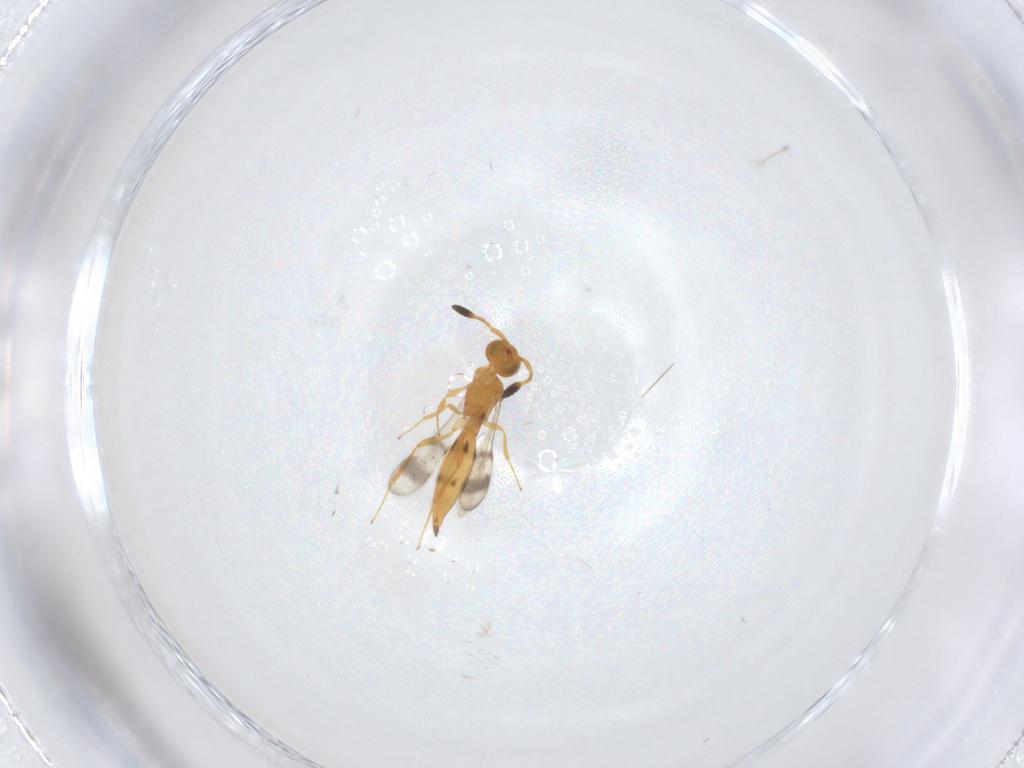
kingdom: Animalia
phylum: Arthropoda
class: Insecta
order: Hymenoptera
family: Scelionidae
